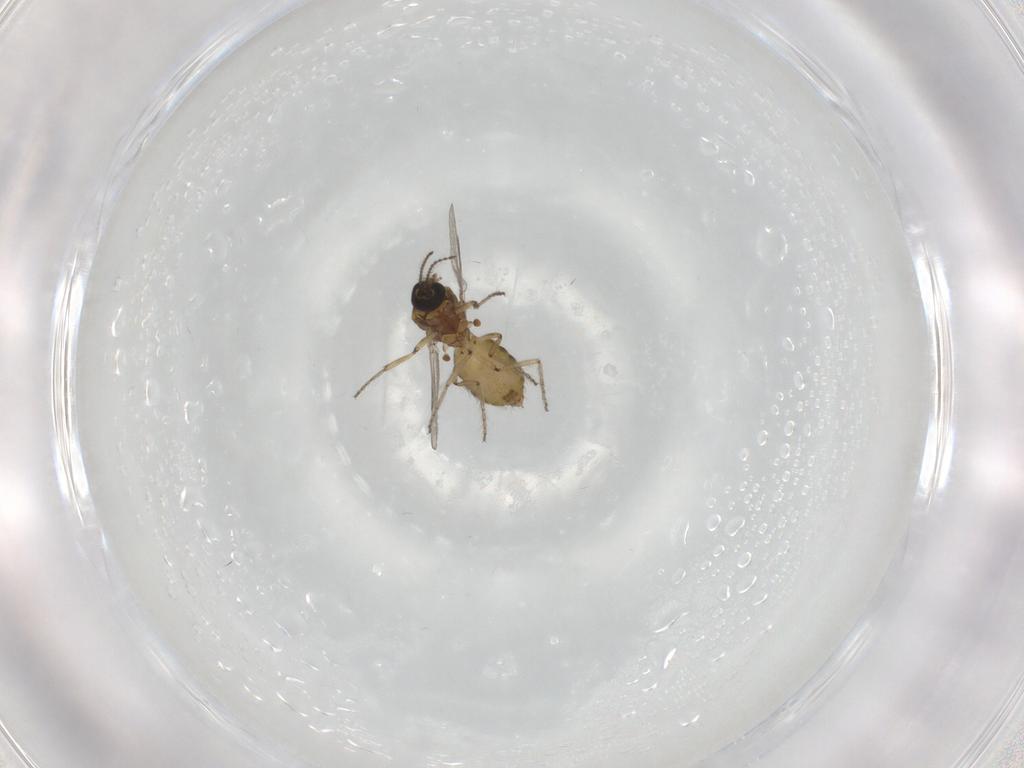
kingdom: Animalia
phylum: Arthropoda
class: Insecta
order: Diptera
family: Ceratopogonidae
